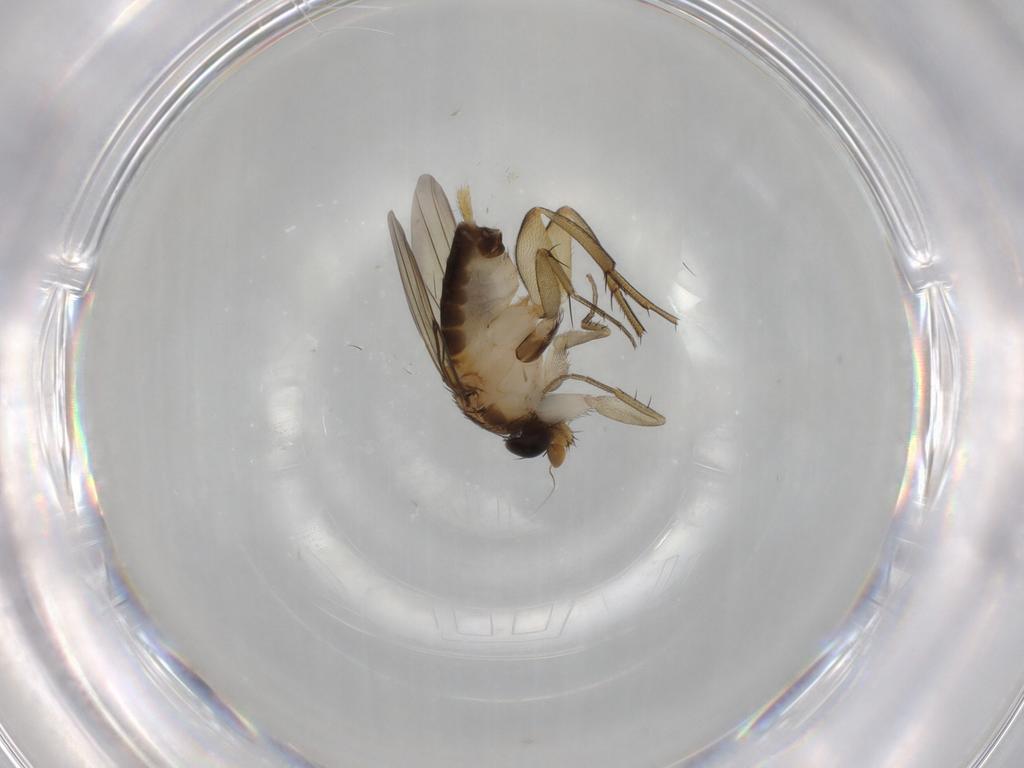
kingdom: Animalia
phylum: Arthropoda
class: Insecta
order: Diptera
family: Phoridae
